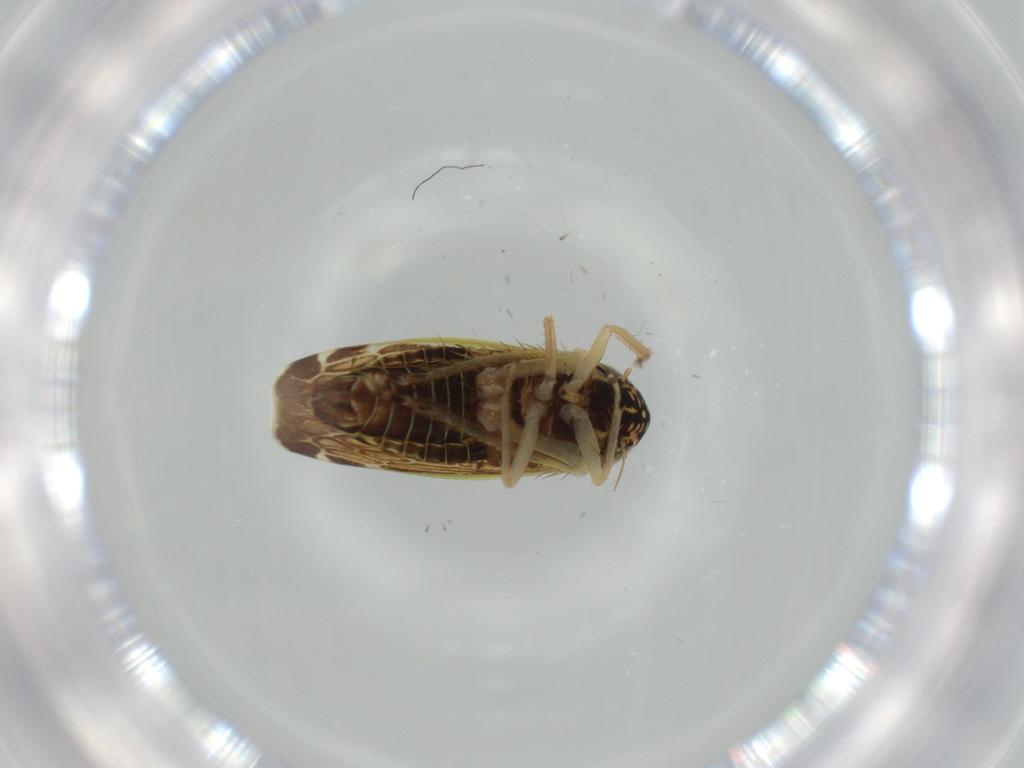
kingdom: Animalia
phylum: Arthropoda
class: Insecta
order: Hemiptera
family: Cicadellidae
